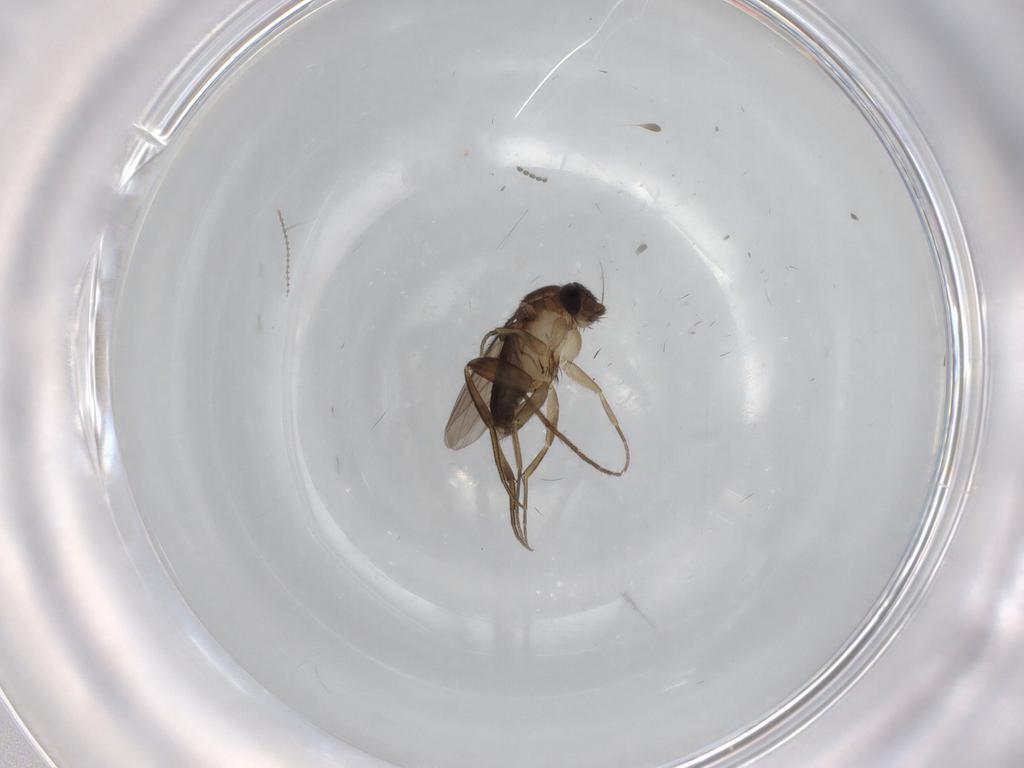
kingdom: Animalia
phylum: Arthropoda
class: Insecta
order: Diptera
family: Phoridae
